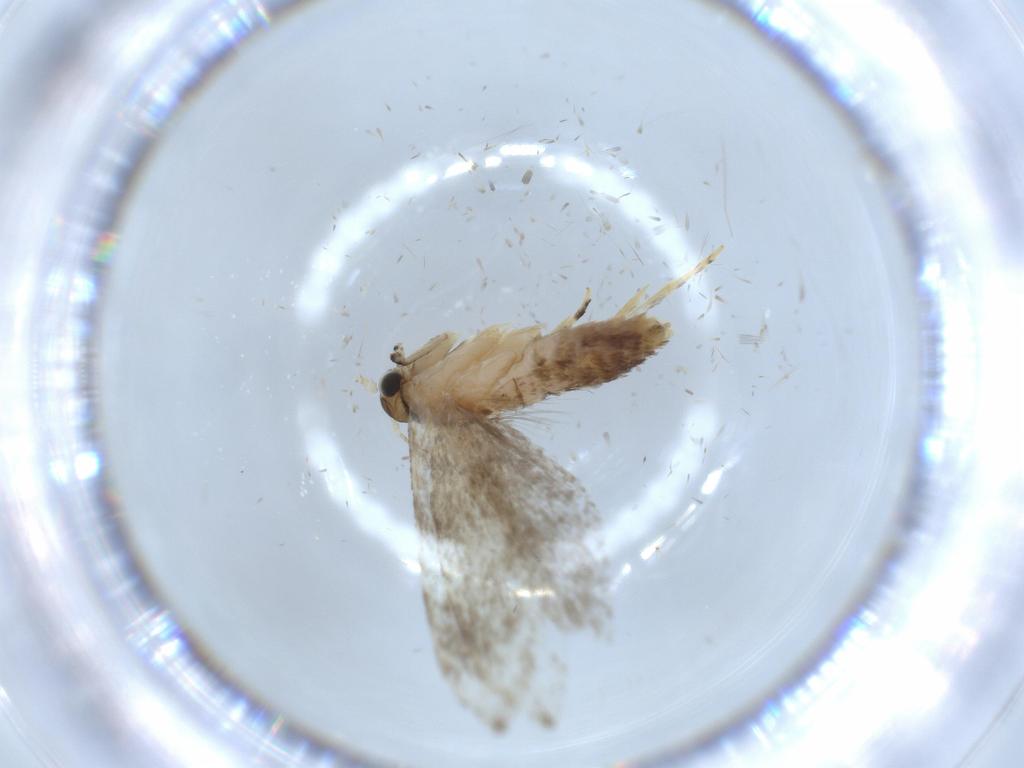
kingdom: Animalia
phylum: Arthropoda
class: Insecta
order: Lepidoptera
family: Tineidae
